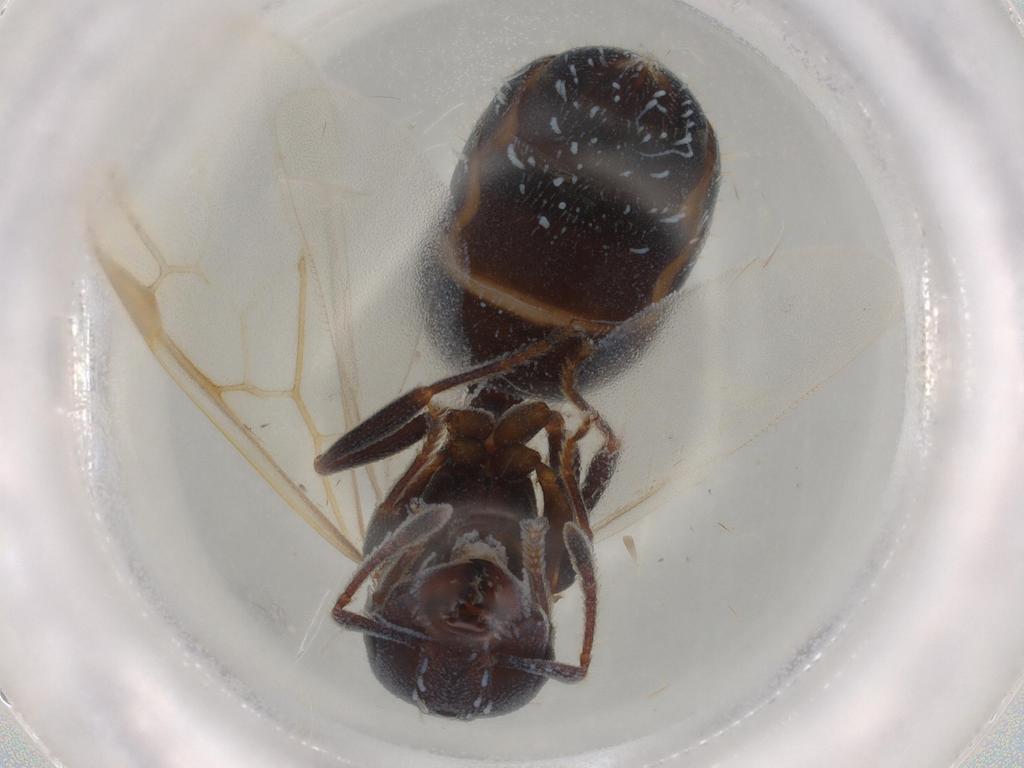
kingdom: Animalia
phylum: Arthropoda
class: Insecta
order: Hymenoptera
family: Formicidae
